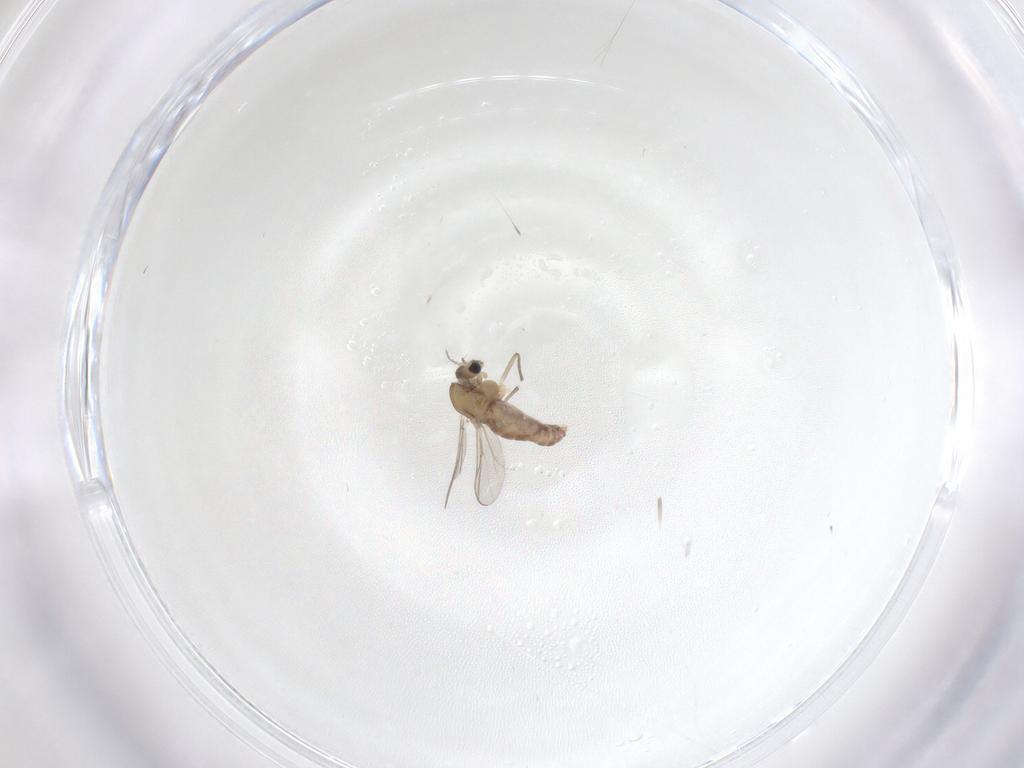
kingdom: Animalia
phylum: Arthropoda
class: Insecta
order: Diptera
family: Chironomidae
